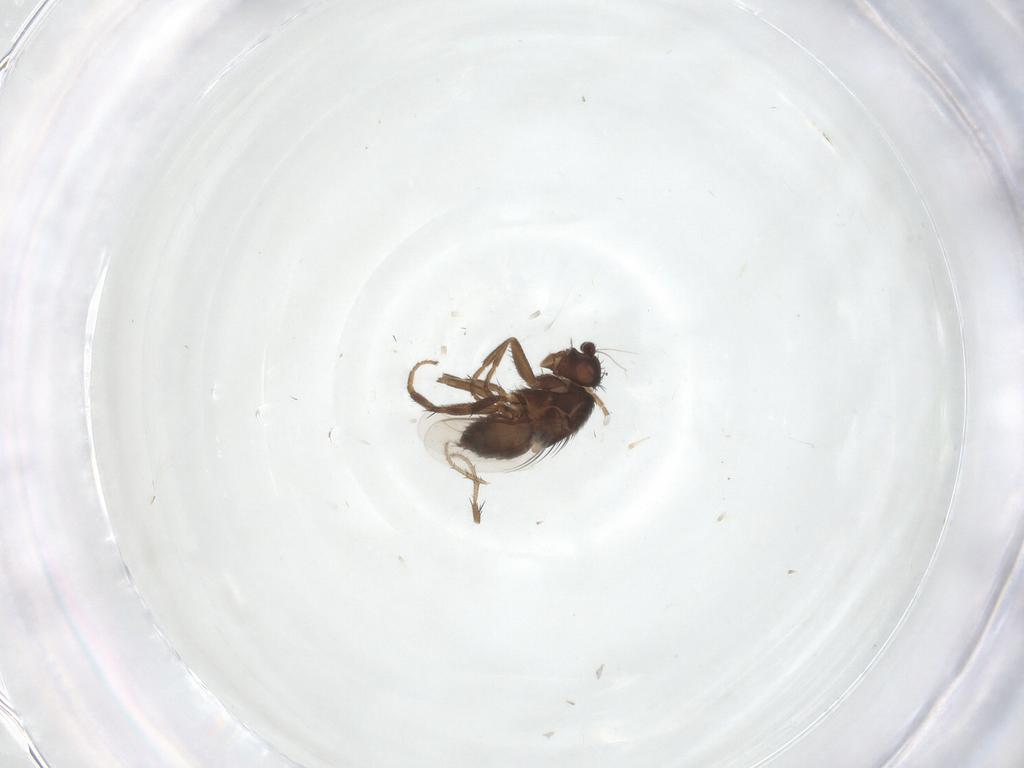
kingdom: Animalia
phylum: Arthropoda
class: Insecta
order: Diptera
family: Sphaeroceridae
